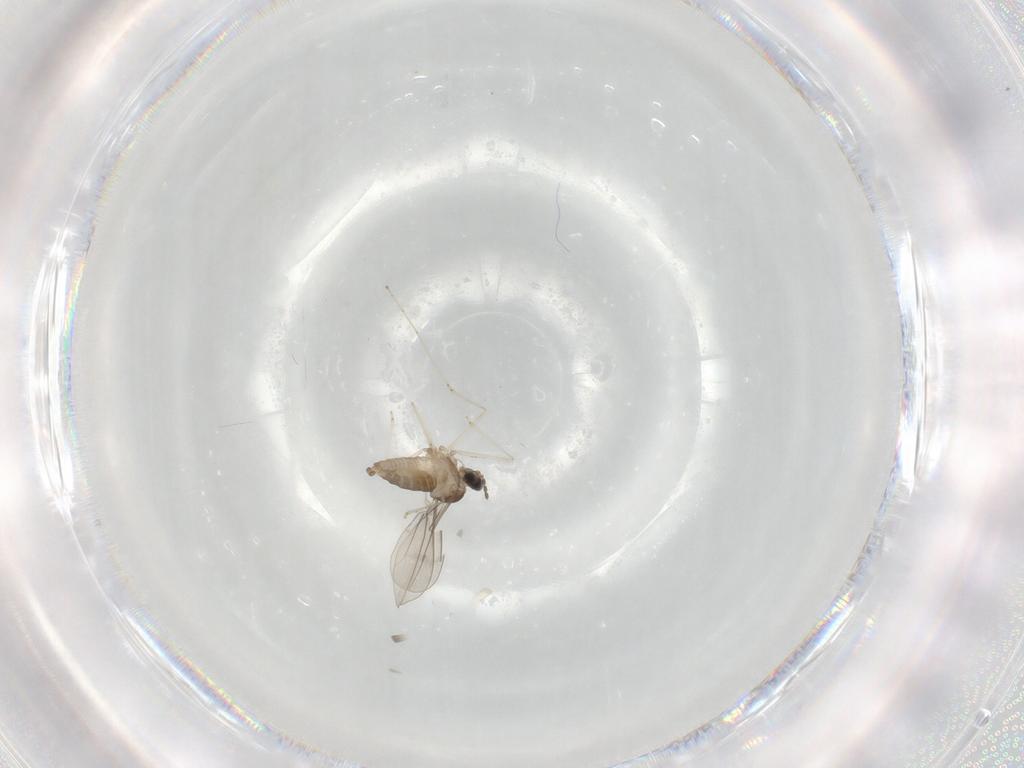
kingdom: Animalia
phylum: Arthropoda
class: Insecta
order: Diptera
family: Cecidomyiidae
